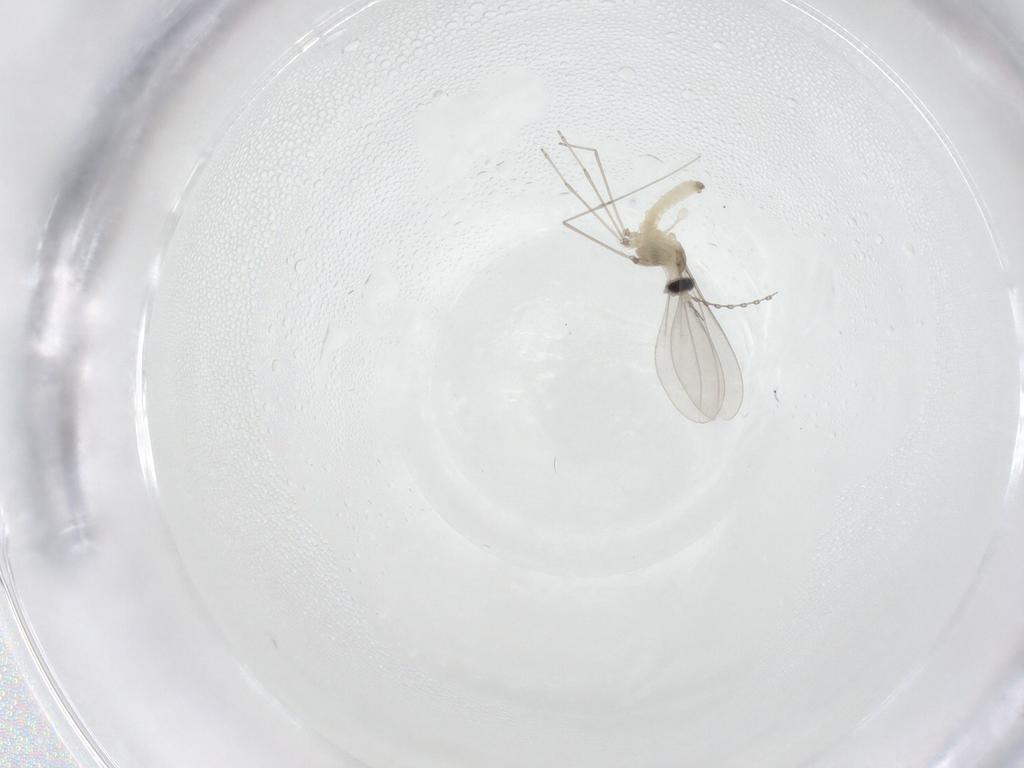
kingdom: Animalia
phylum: Arthropoda
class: Insecta
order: Diptera
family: Cecidomyiidae
